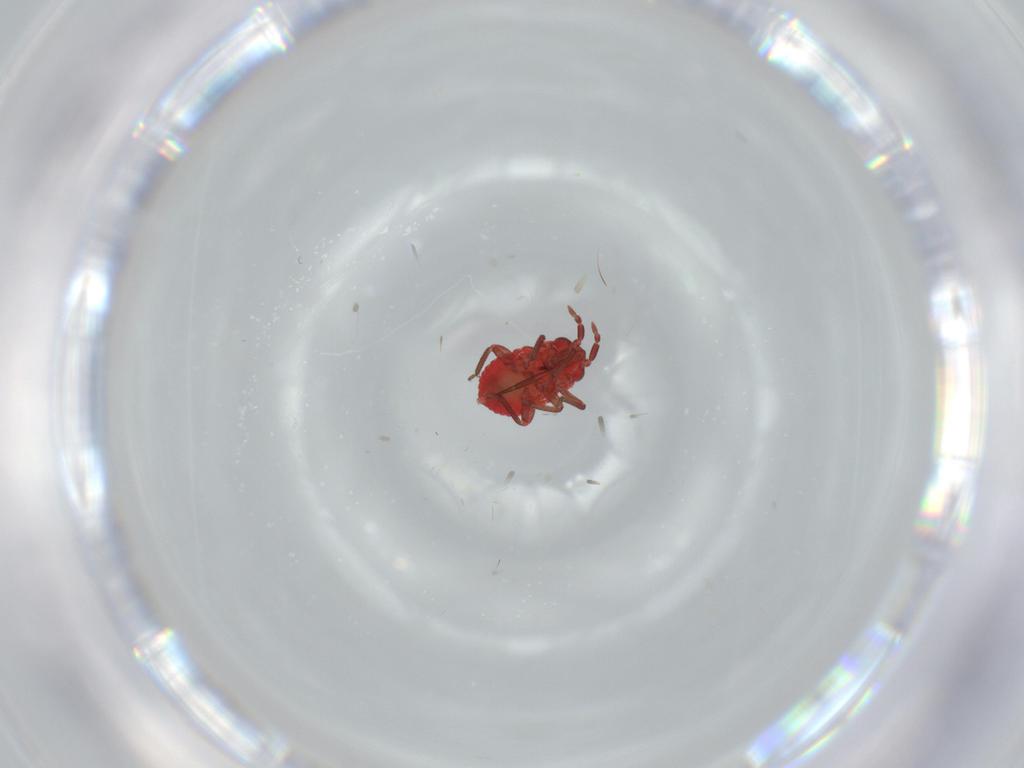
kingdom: Animalia
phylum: Arthropoda
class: Insecta
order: Hemiptera
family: Miridae
